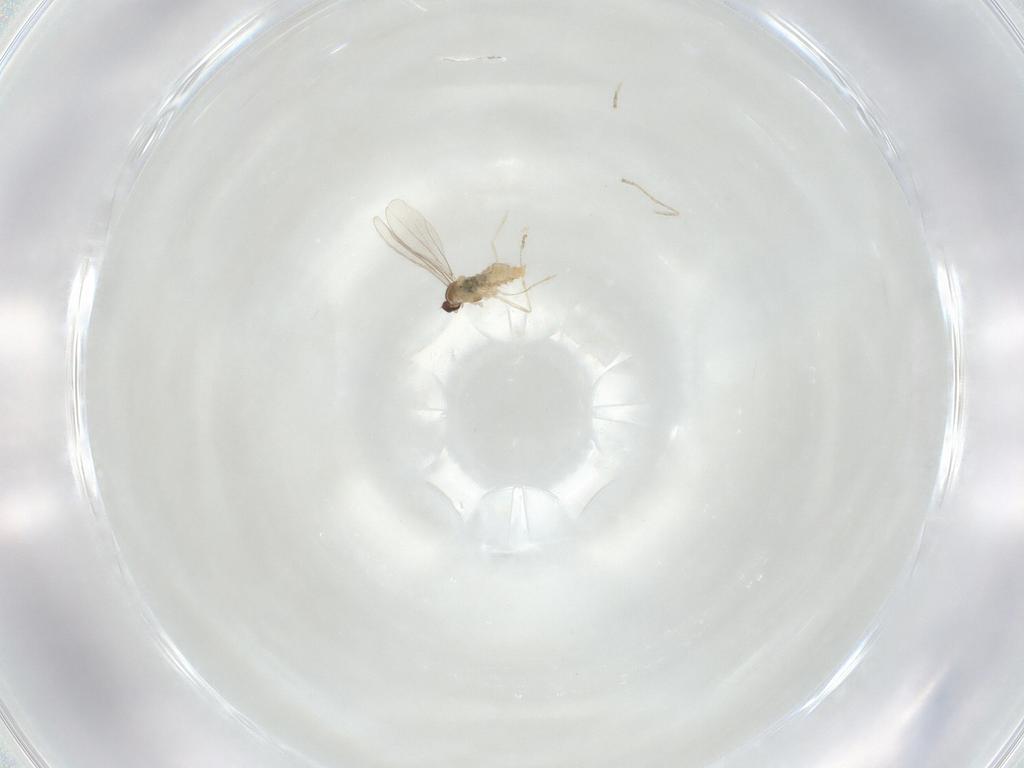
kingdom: Animalia
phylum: Arthropoda
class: Insecta
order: Diptera
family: Cecidomyiidae
